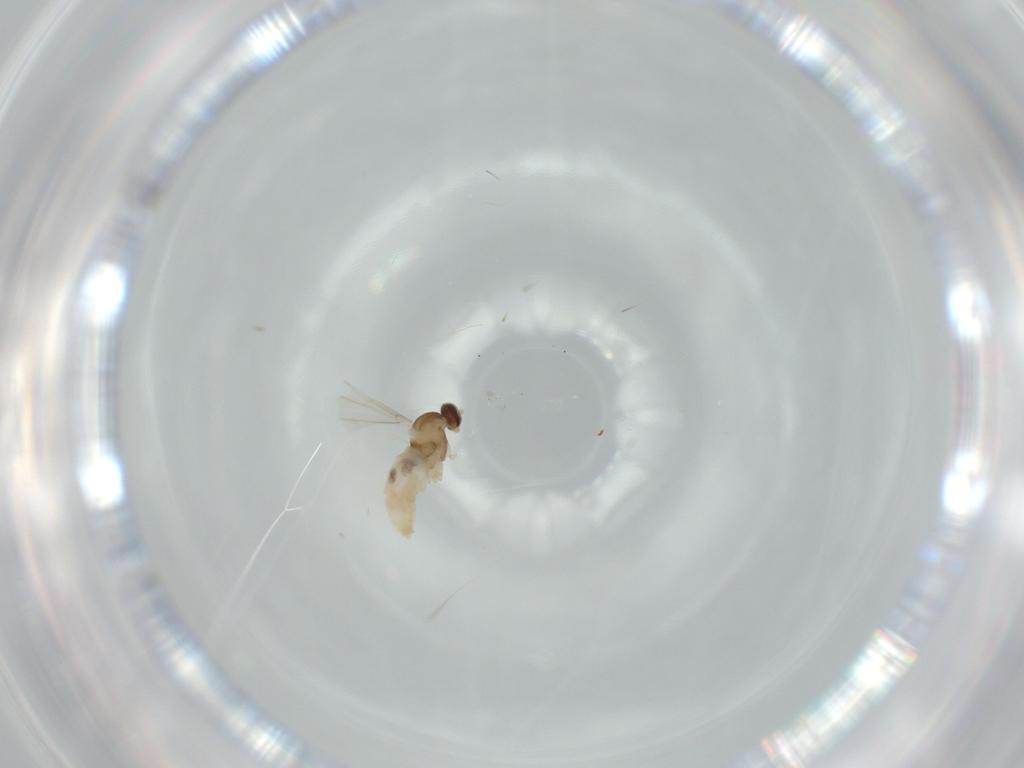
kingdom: Animalia
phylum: Arthropoda
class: Insecta
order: Diptera
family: Cecidomyiidae
